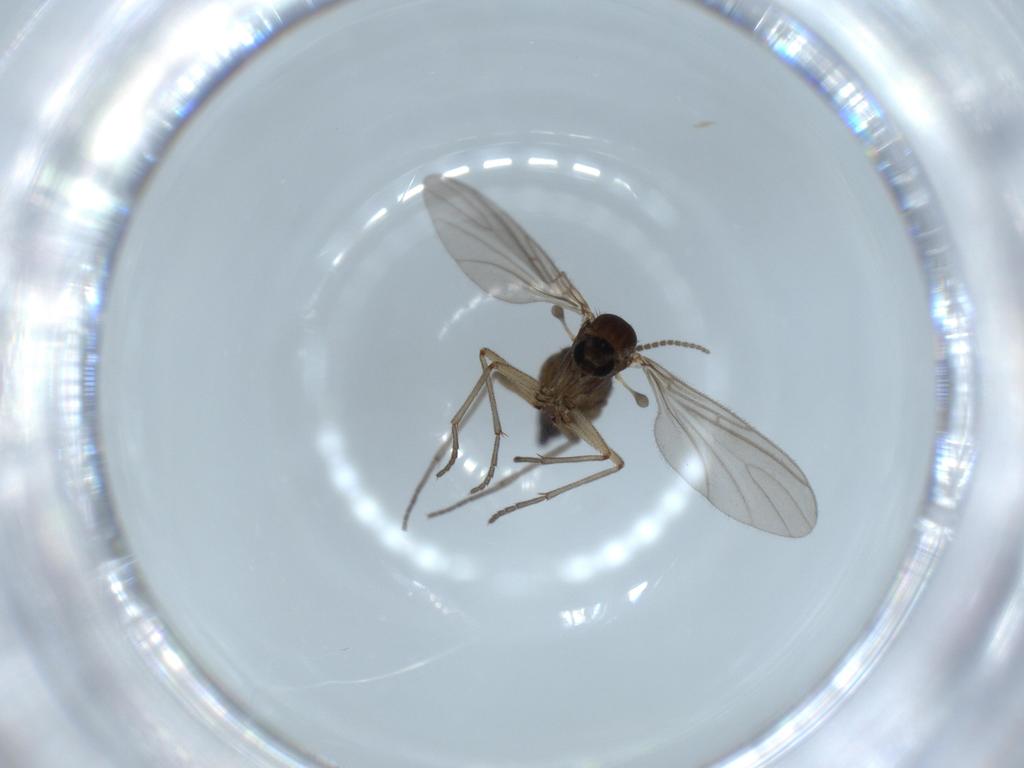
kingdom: Animalia
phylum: Arthropoda
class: Insecta
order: Diptera
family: Sciaridae
